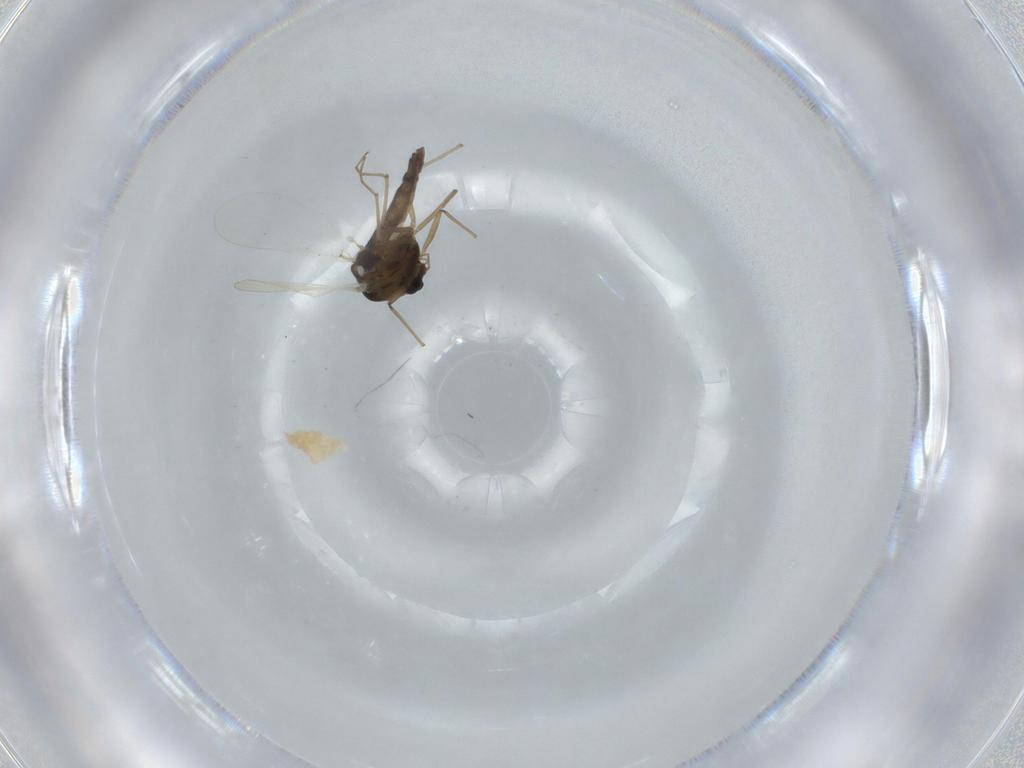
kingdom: Animalia
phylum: Arthropoda
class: Insecta
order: Diptera
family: Chironomidae
